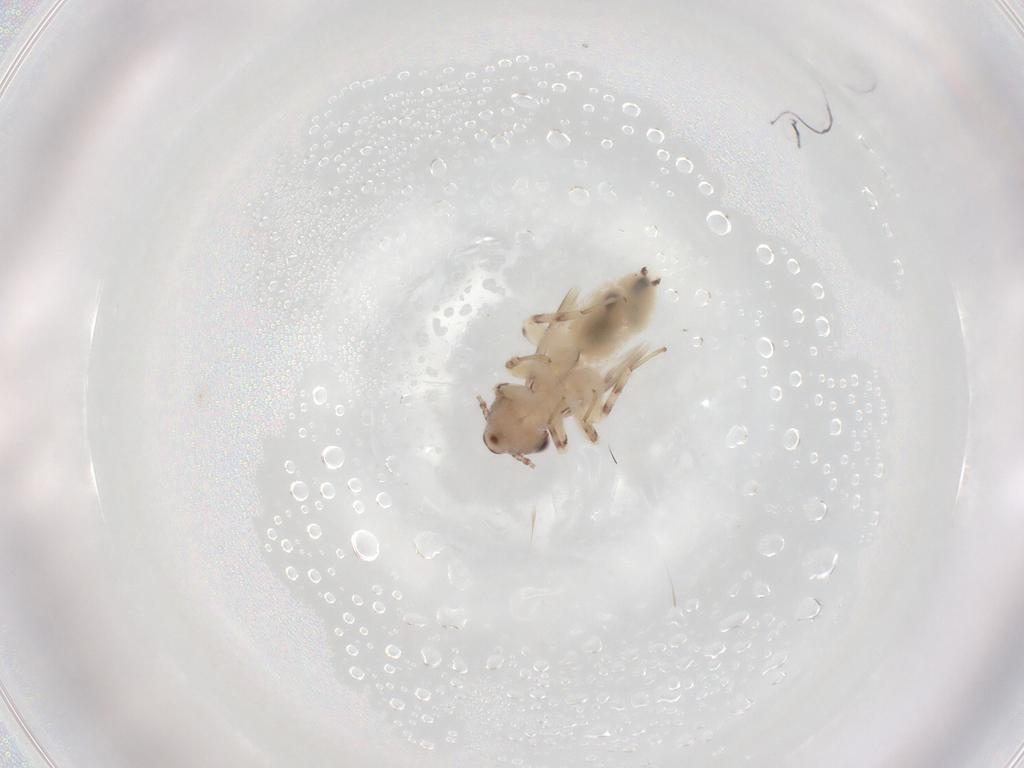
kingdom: Animalia
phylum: Arthropoda
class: Insecta
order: Psocodea
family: Lepidopsocidae
